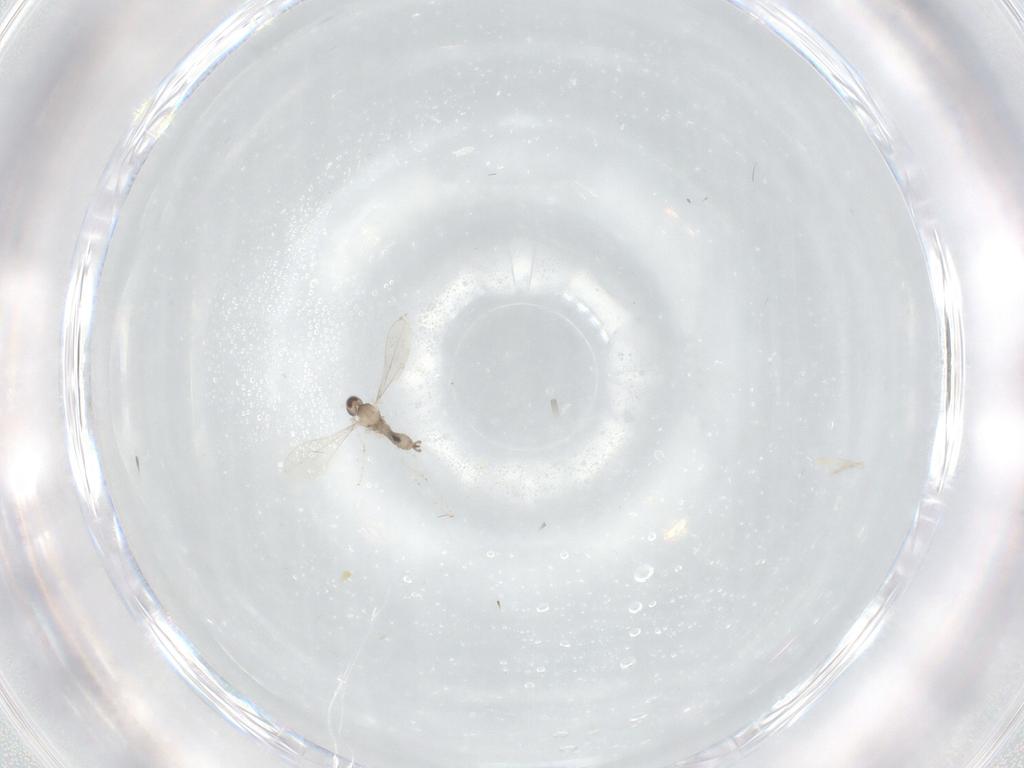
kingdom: Animalia
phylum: Arthropoda
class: Insecta
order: Diptera
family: Cecidomyiidae
